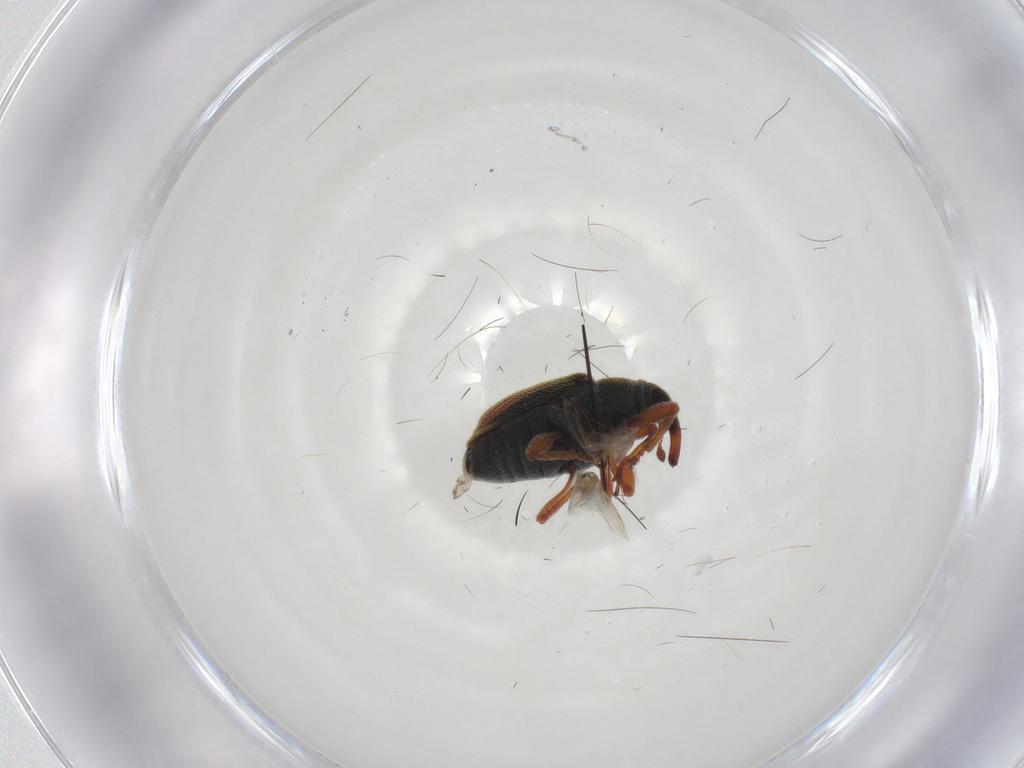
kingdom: Animalia
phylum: Arthropoda
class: Insecta
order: Coleoptera
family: Curculionidae
